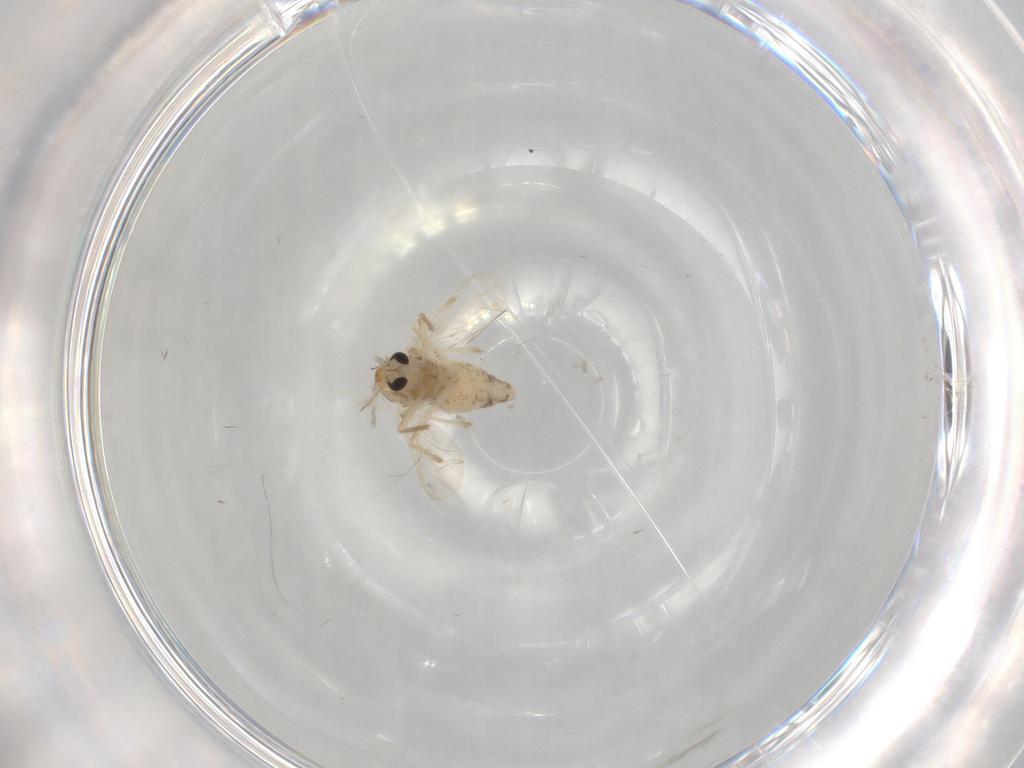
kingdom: Animalia
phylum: Arthropoda
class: Insecta
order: Diptera
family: Chironomidae
